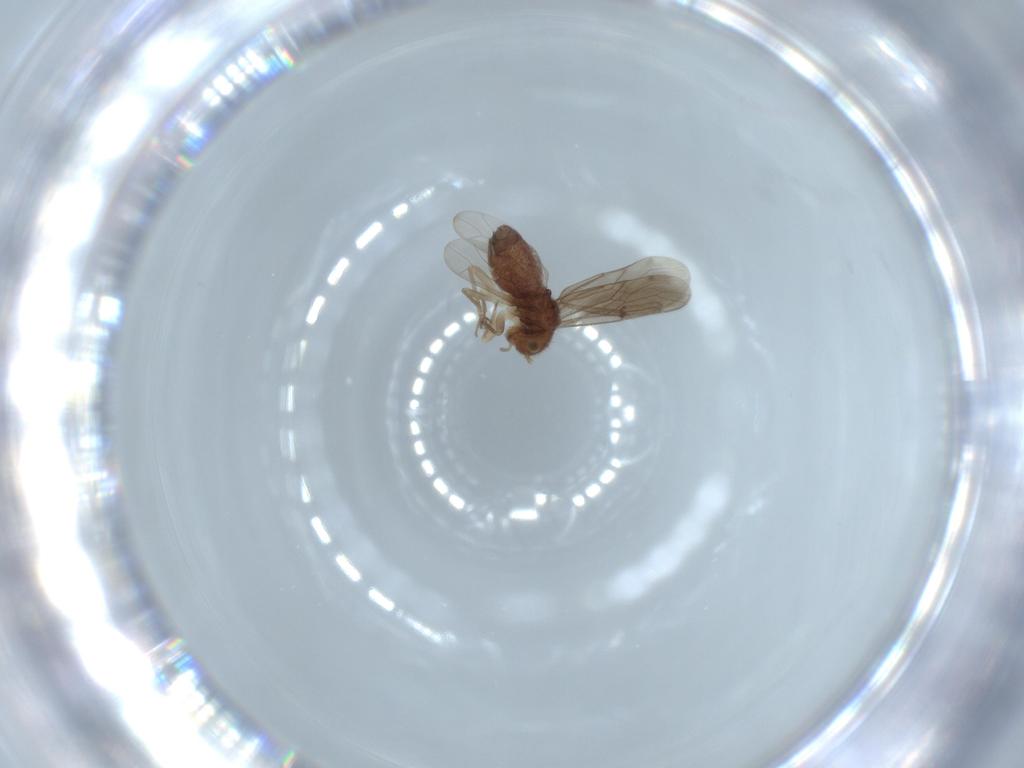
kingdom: Animalia
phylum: Arthropoda
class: Insecta
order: Psocodea
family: Ectopsocidae
